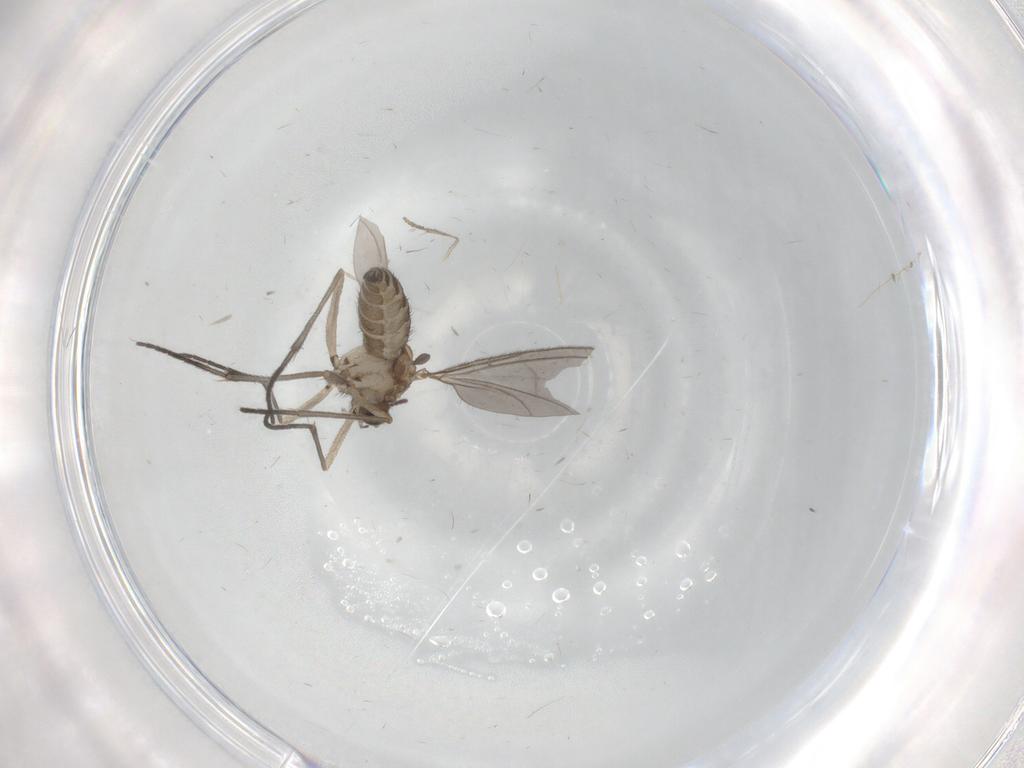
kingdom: Animalia
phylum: Arthropoda
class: Insecta
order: Diptera
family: Sciaridae
